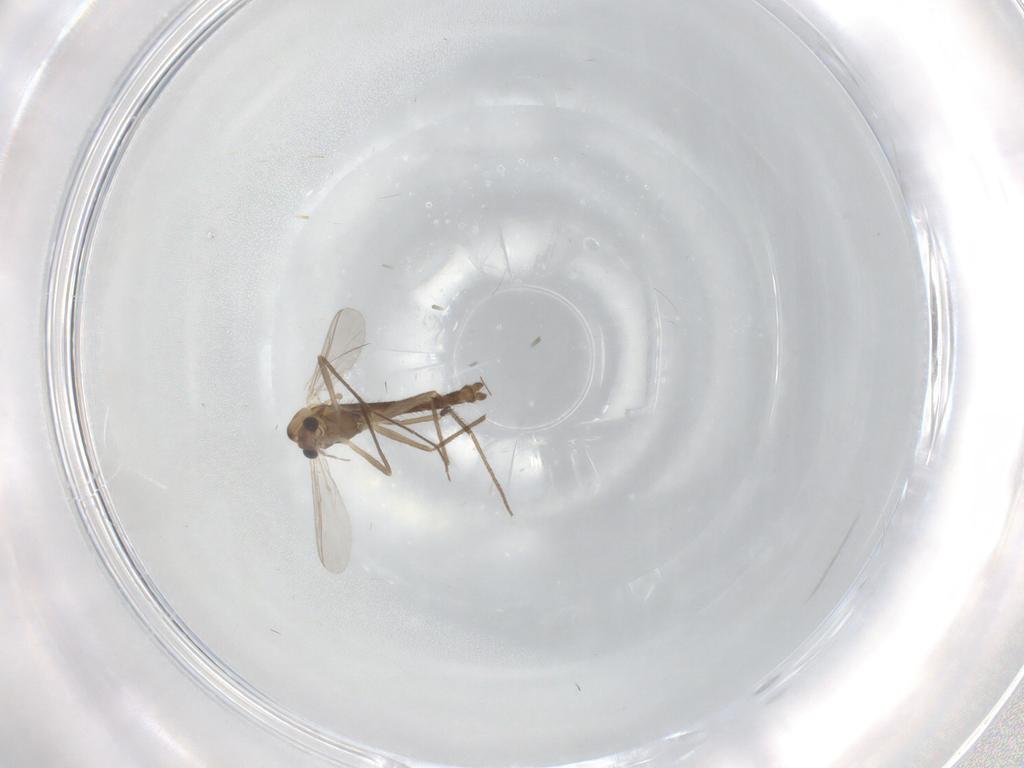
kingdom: Animalia
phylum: Arthropoda
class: Insecta
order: Diptera
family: Chironomidae
